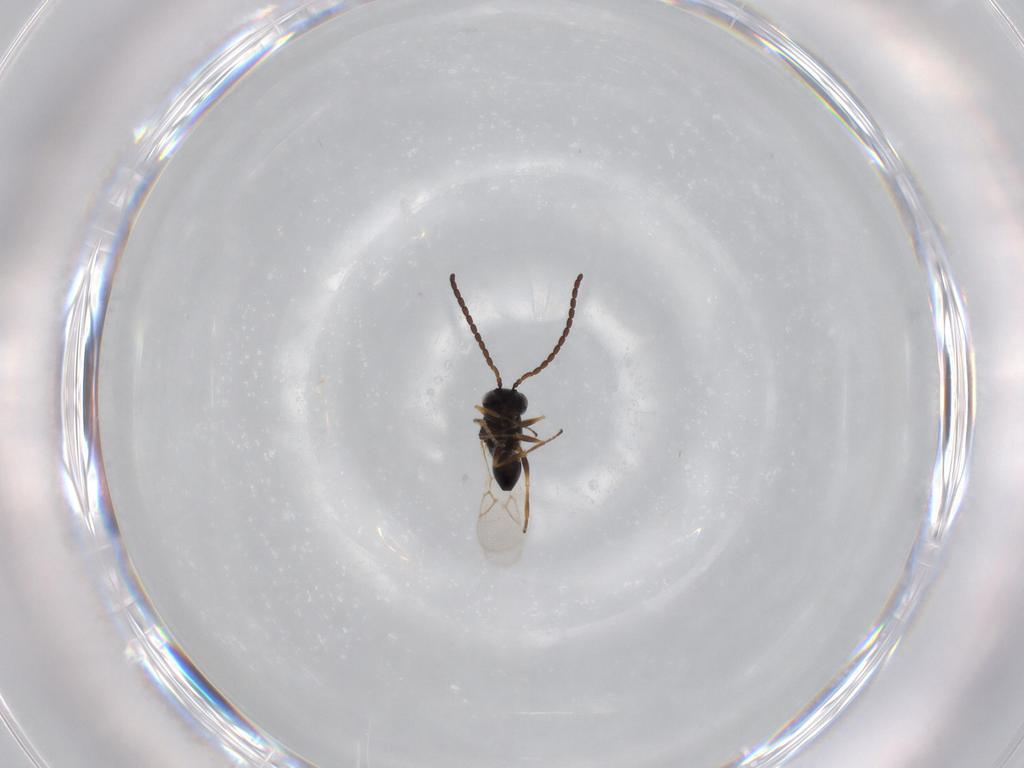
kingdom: Animalia
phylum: Arthropoda
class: Insecta
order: Hymenoptera
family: Figitidae
